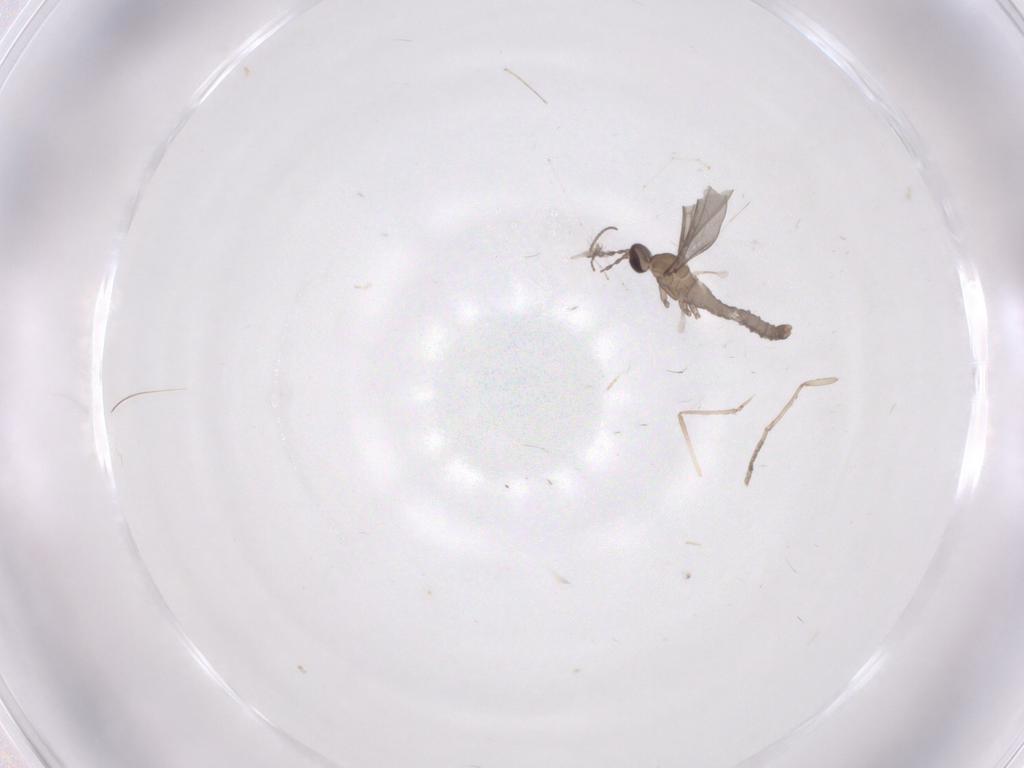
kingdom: Animalia
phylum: Arthropoda
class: Insecta
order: Diptera
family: Cecidomyiidae
